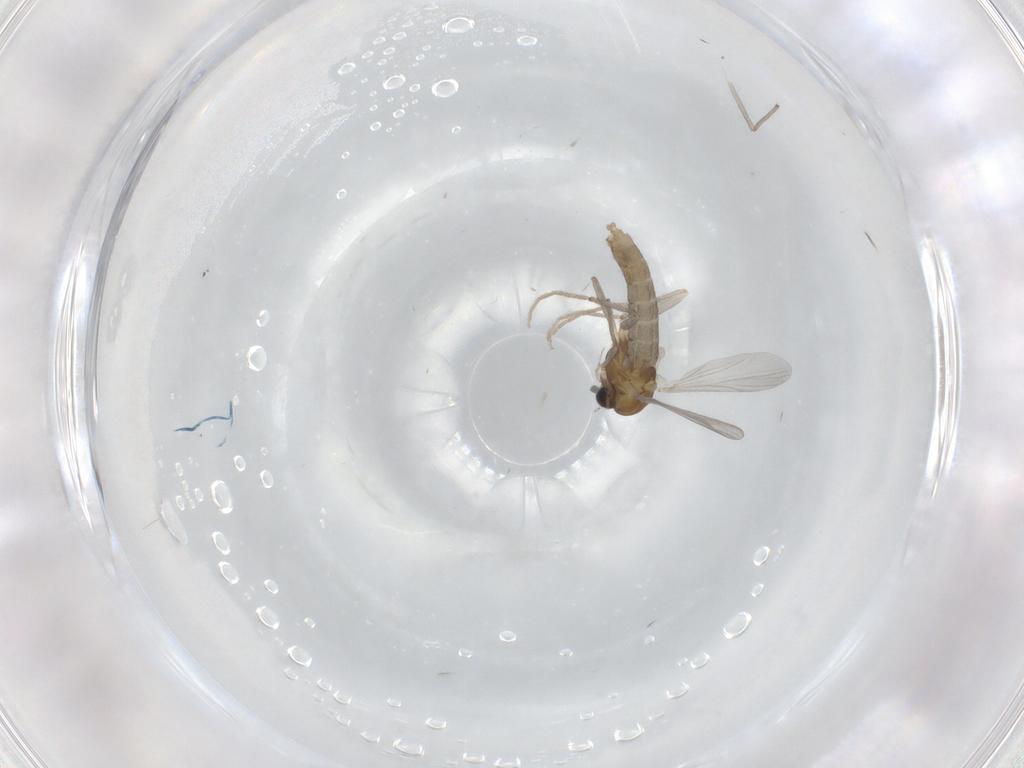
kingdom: Animalia
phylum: Arthropoda
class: Insecta
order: Diptera
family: Chironomidae
